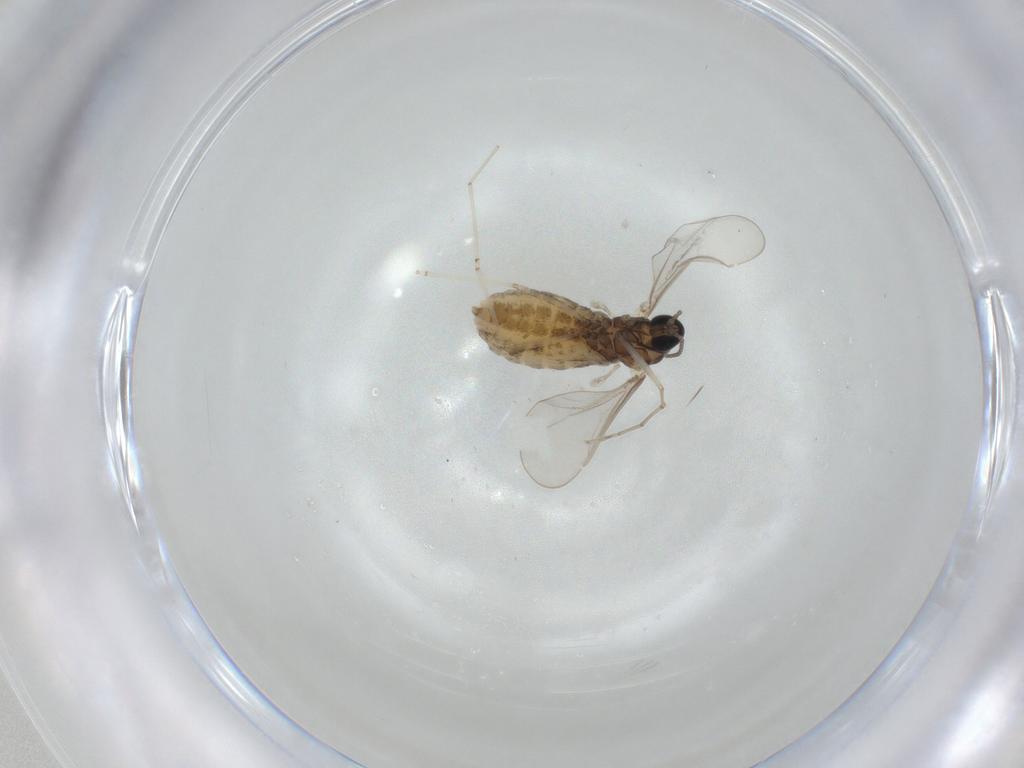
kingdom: Animalia
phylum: Arthropoda
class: Insecta
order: Diptera
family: Cecidomyiidae
